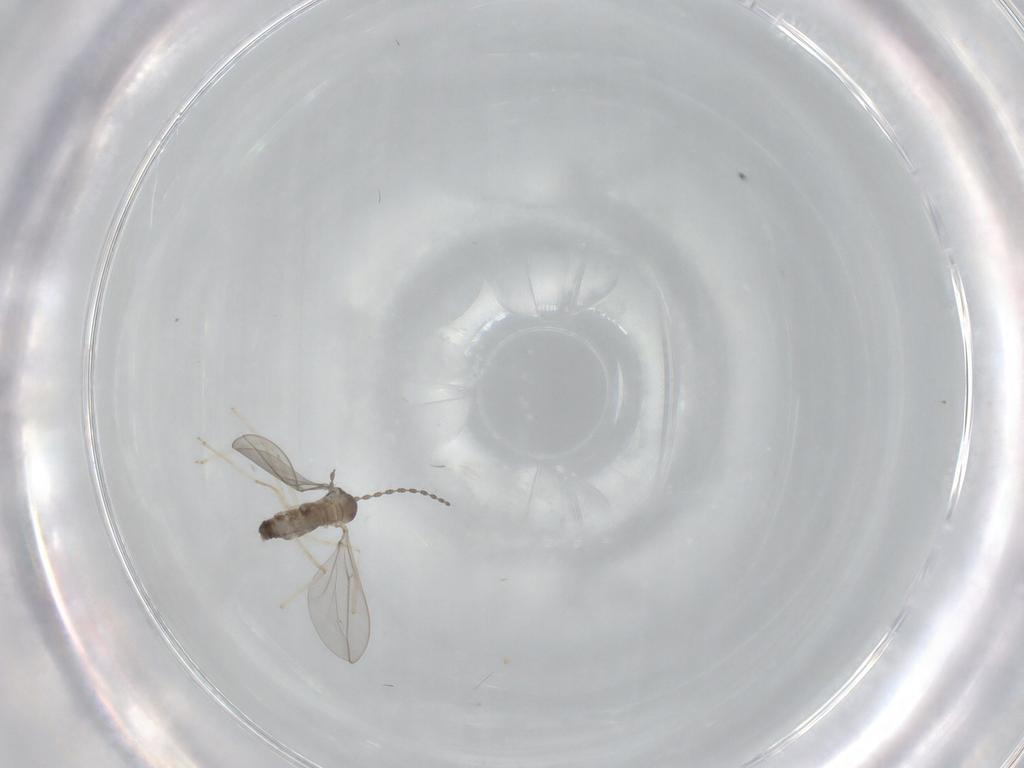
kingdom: Animalia
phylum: Arthropoda
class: Insecta
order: Diptera
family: Cecidomyiidae
